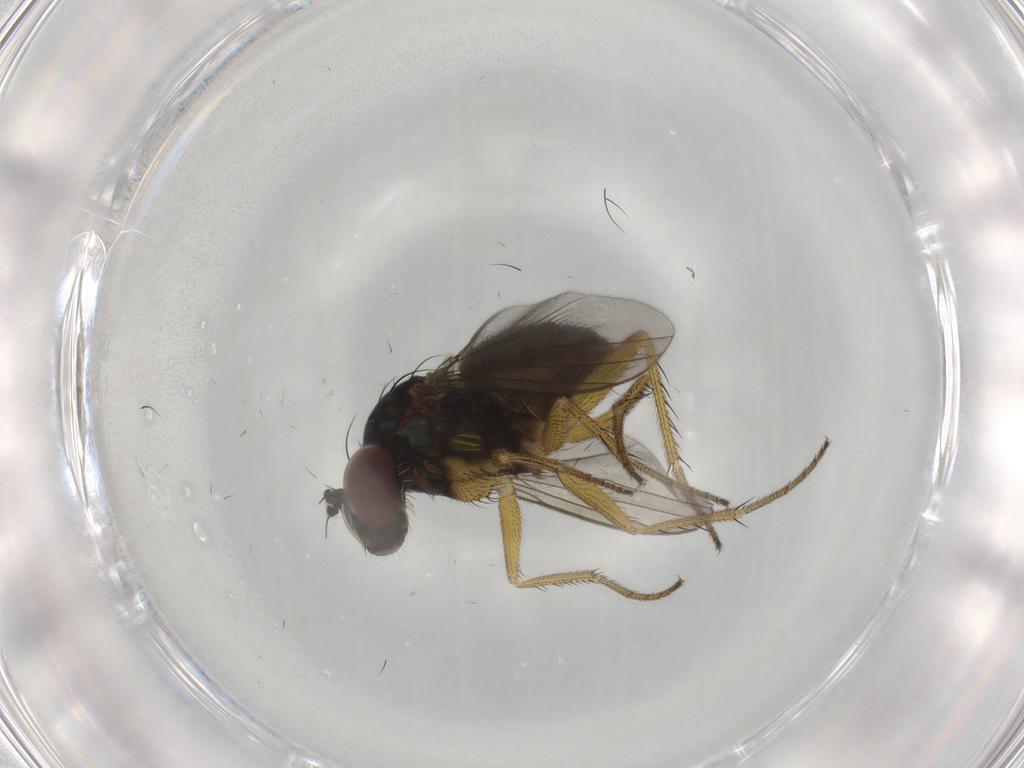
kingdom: Animalia
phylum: Arthropoda
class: Insecta
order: Diptera
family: Dolichopodidae
